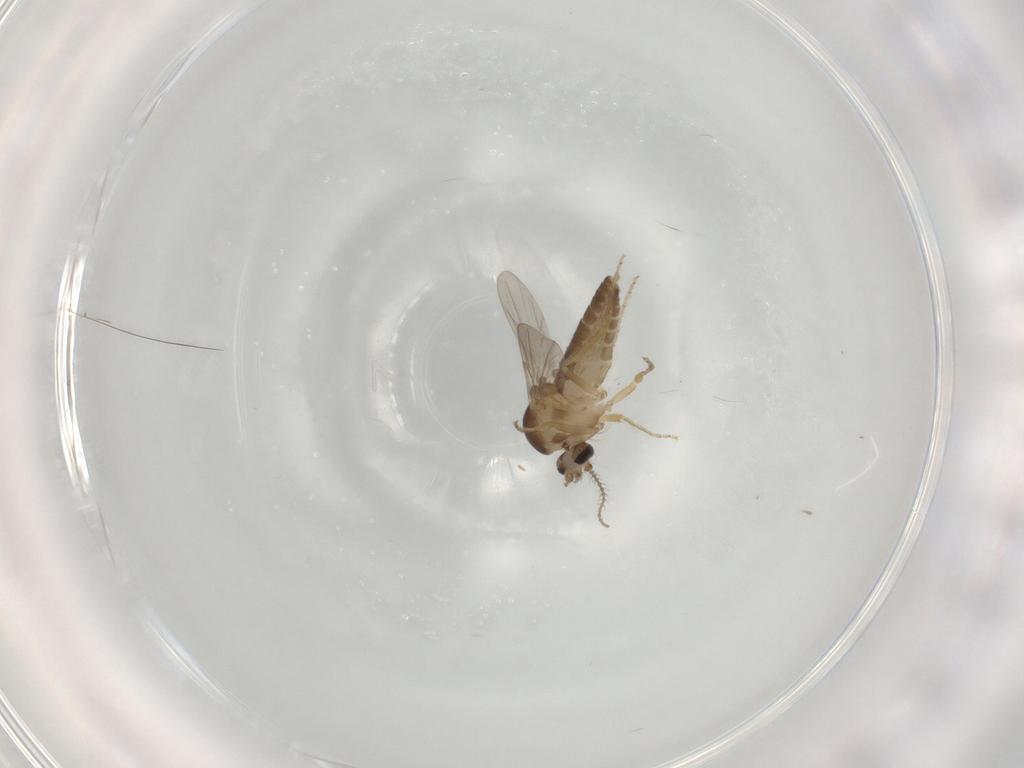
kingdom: Animalia
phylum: Arthropoda
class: Insecta
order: Diptera
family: Ceratopogonidae
